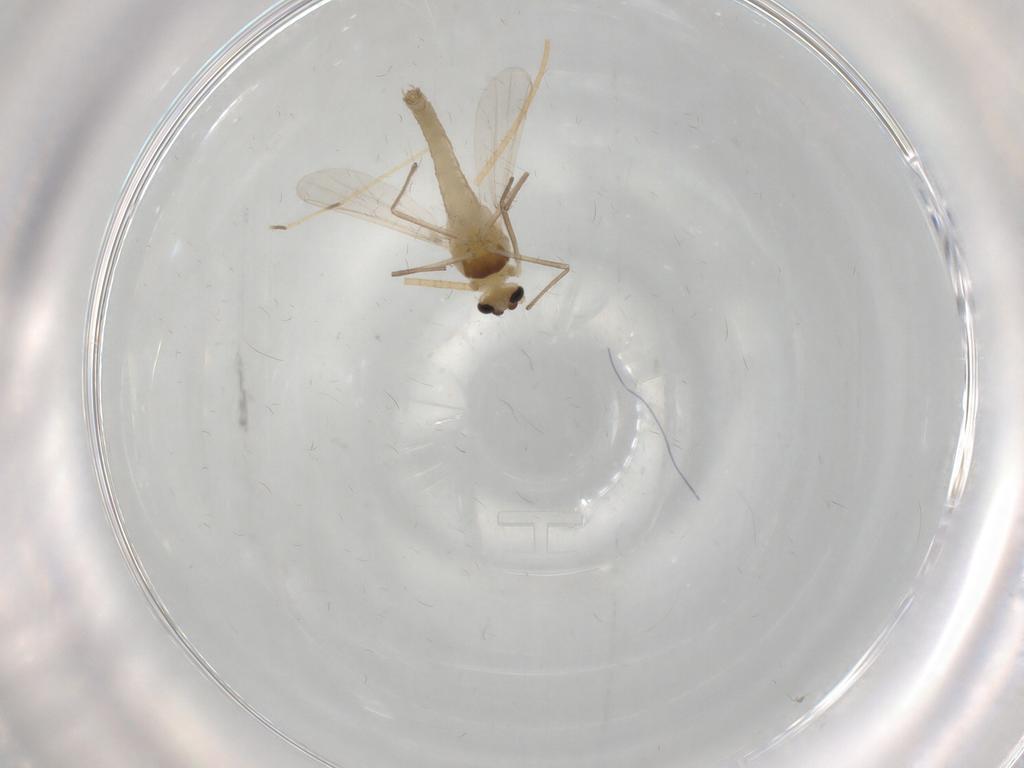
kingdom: Animalia
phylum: Arthropoda
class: Insecta
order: Diptera
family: Chironomidae
